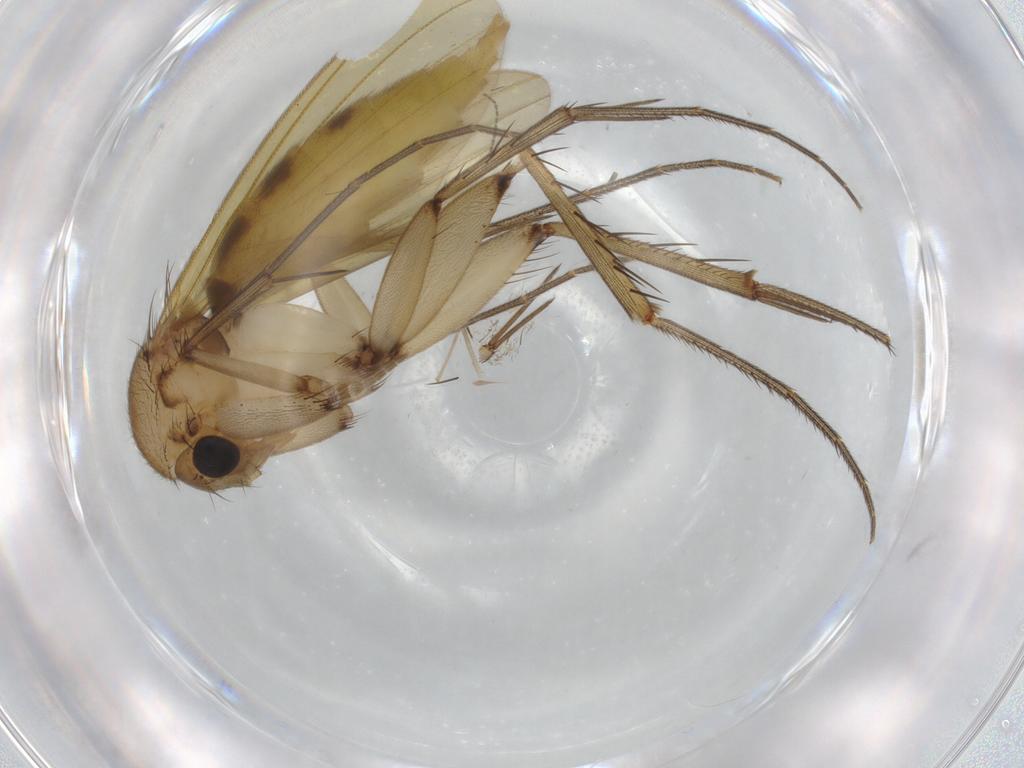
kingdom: Animalia
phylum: Arthropoda
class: Insecta
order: Diptera
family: Mycetophilidae
